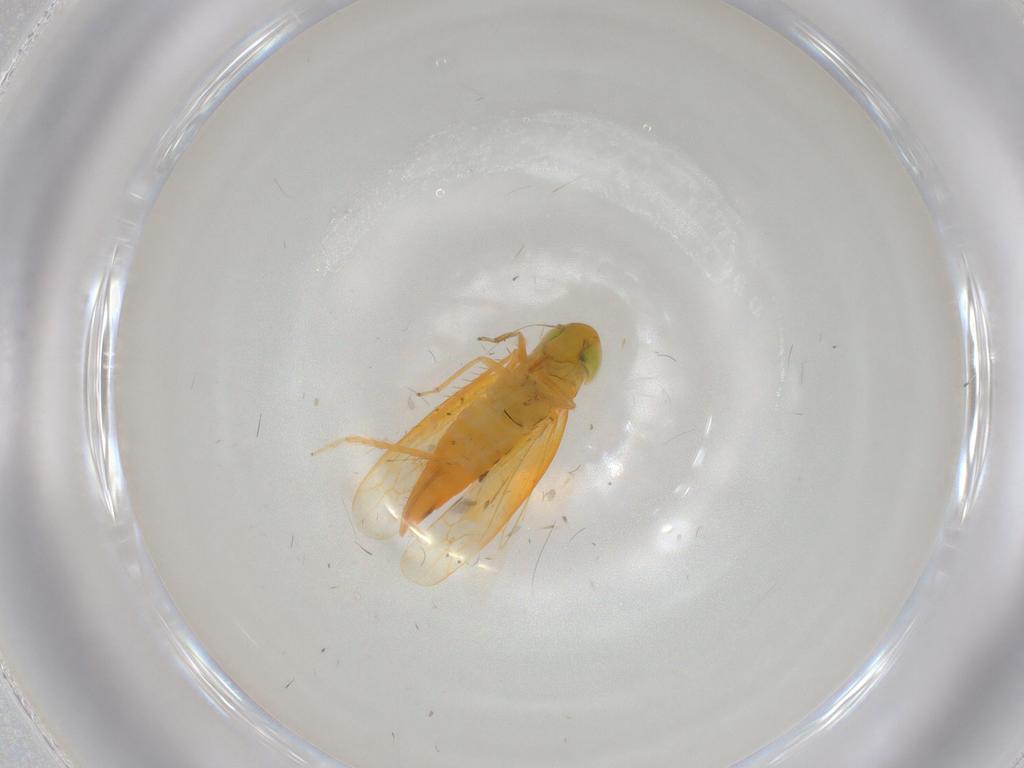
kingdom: Animalia
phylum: Arthropoda
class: Insecta
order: Hemiptera
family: Cicadellidae
